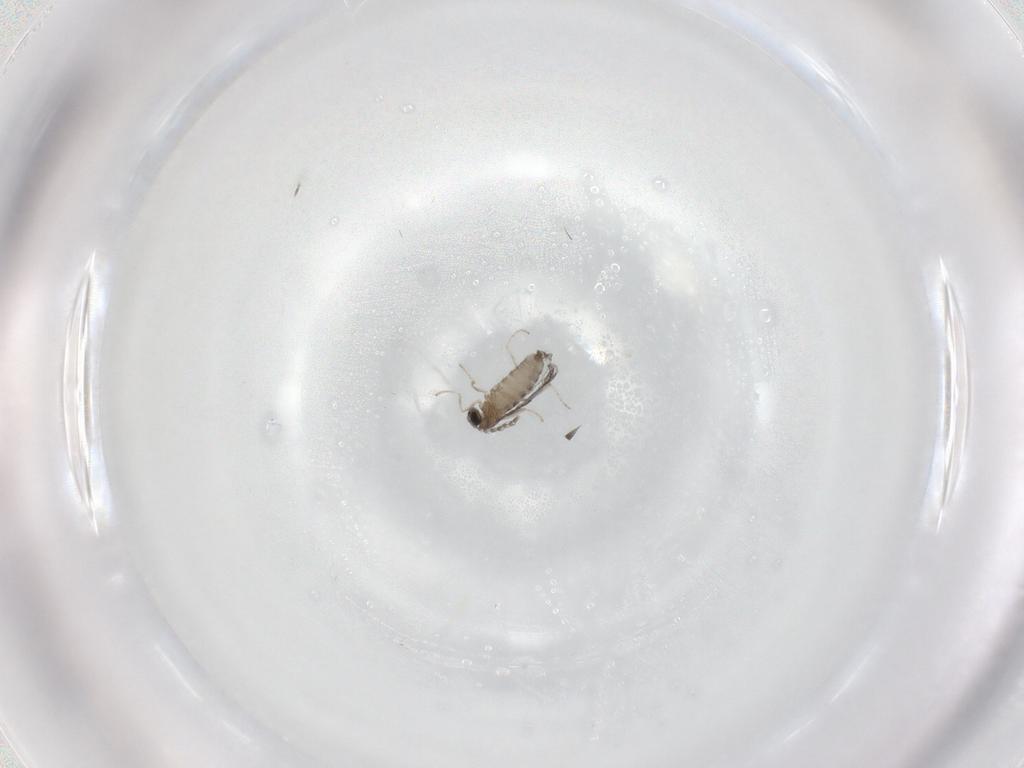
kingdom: Animalia
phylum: Arthropoda
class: Insecta
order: Diptera
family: Cecidomyiidae
